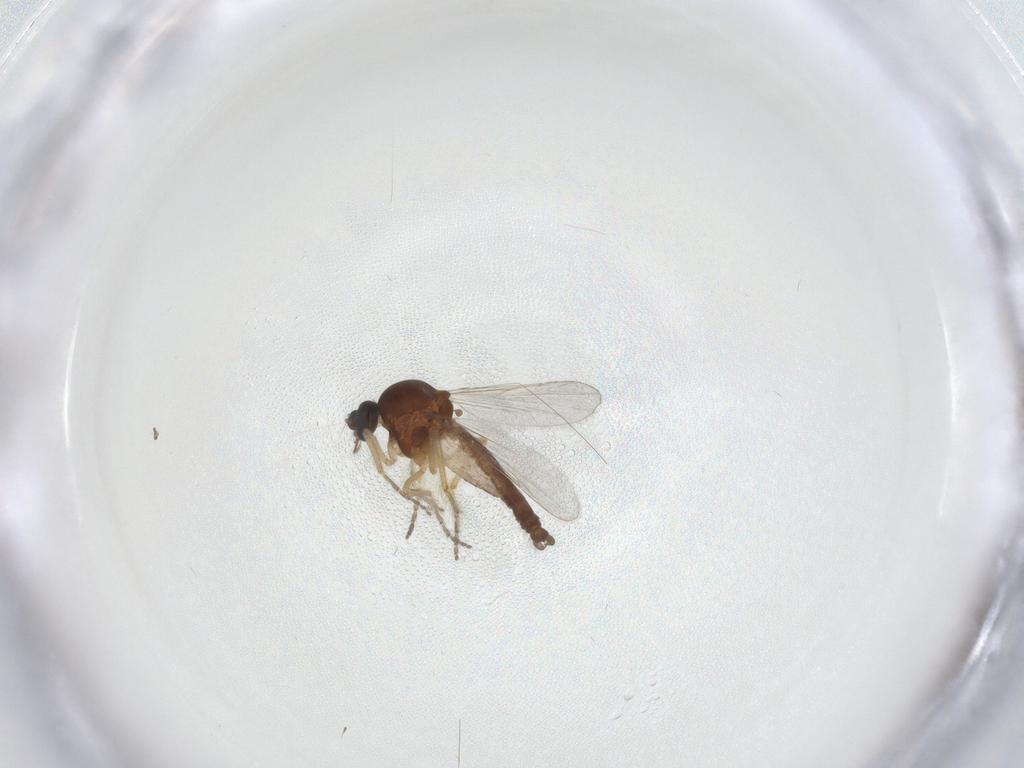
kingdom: Animalia
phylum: Arthropoda
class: Insecta
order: Diptera
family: Ceratopogonidae
